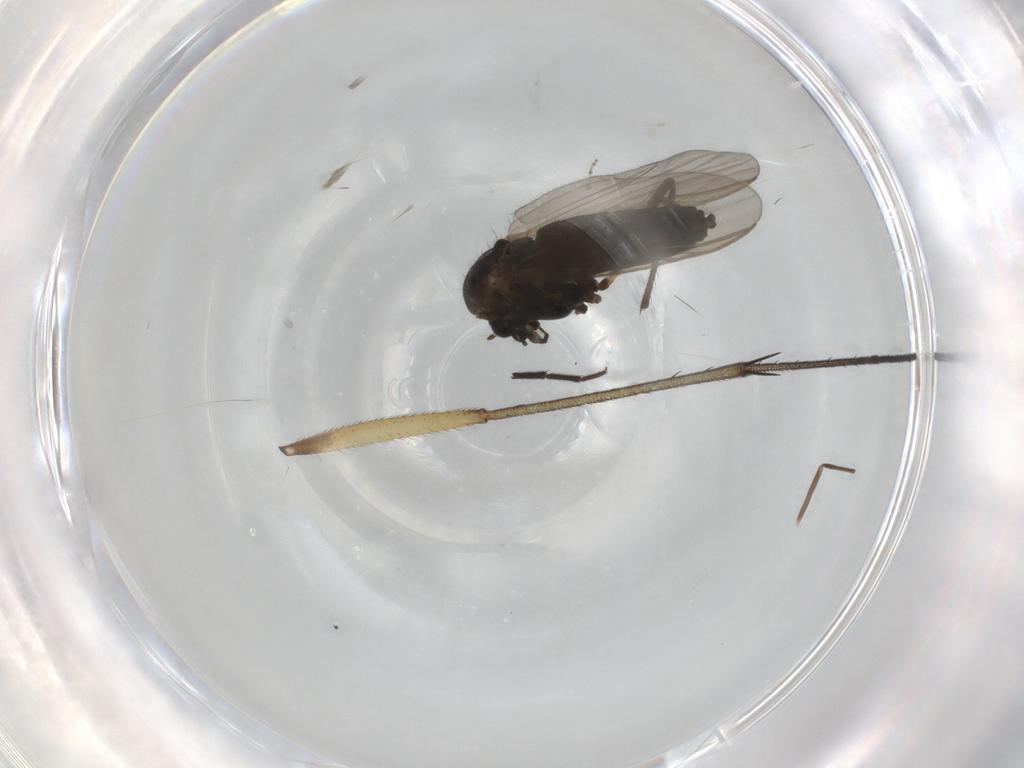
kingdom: Animalia
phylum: Arthropoda
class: Insecta
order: Diptera
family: Chironomidae
